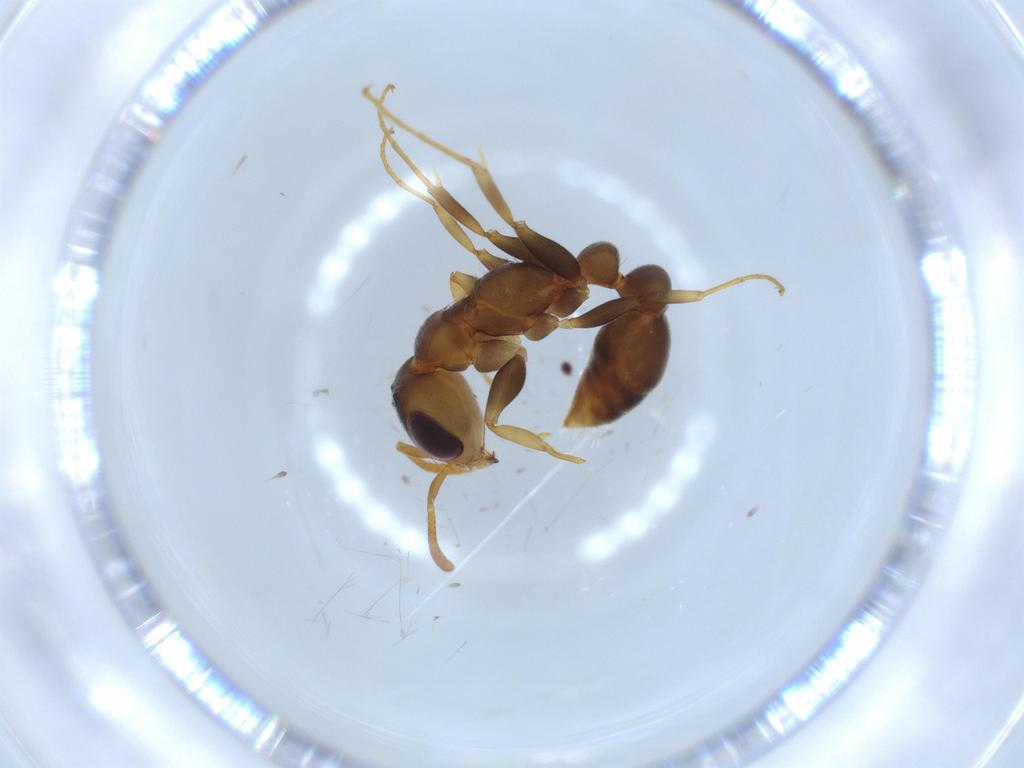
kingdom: Animalia
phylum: Arthropoda
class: Insecta
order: Hymenoptera
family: Formicidae
